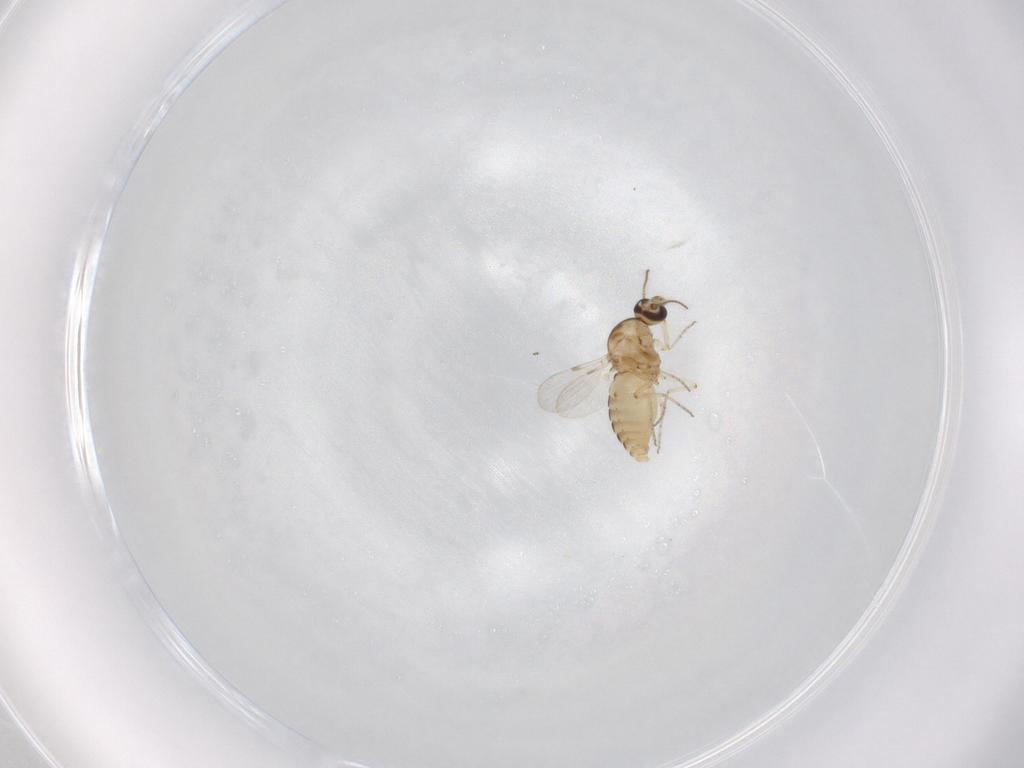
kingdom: Animalia
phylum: Arthropoda
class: Insecta
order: Diptera
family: Ceratopogonidae
